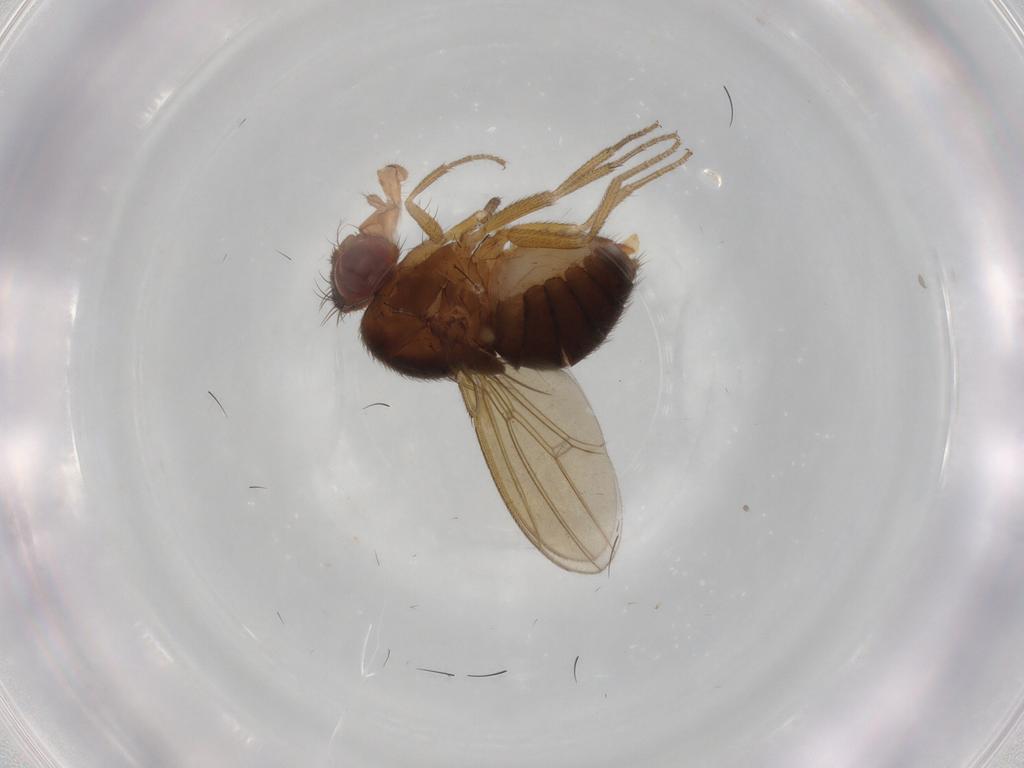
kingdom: Animalia
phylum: Arthropoda
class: Insecta
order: Diptera
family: Drosophilidae
